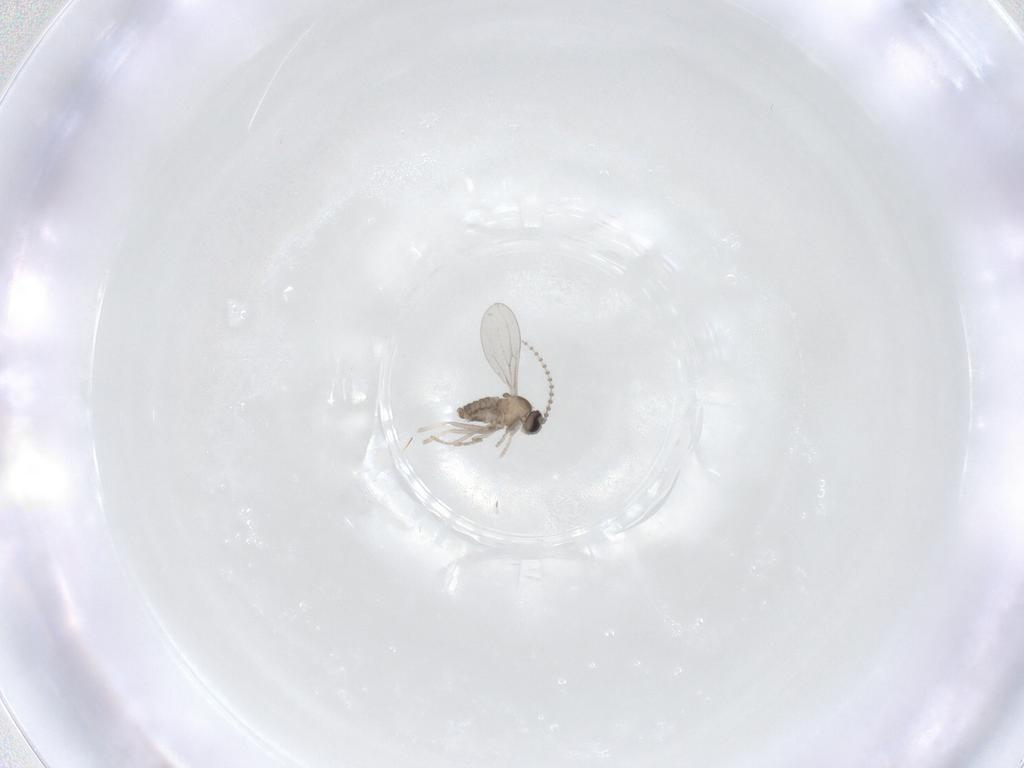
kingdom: Animalia
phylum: Arthropoda
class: Insecta
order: Diptera
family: Cecidomyiidae
